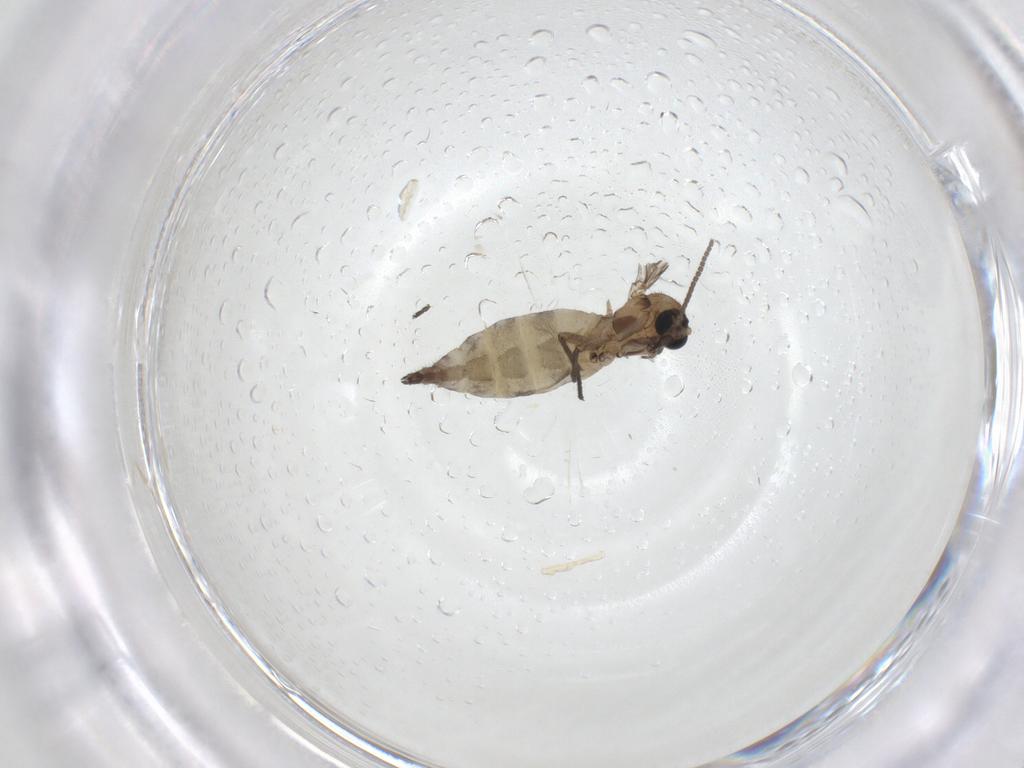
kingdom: Animalia
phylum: Arthropoda
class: Insecta
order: Diptera
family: Sciaridae
